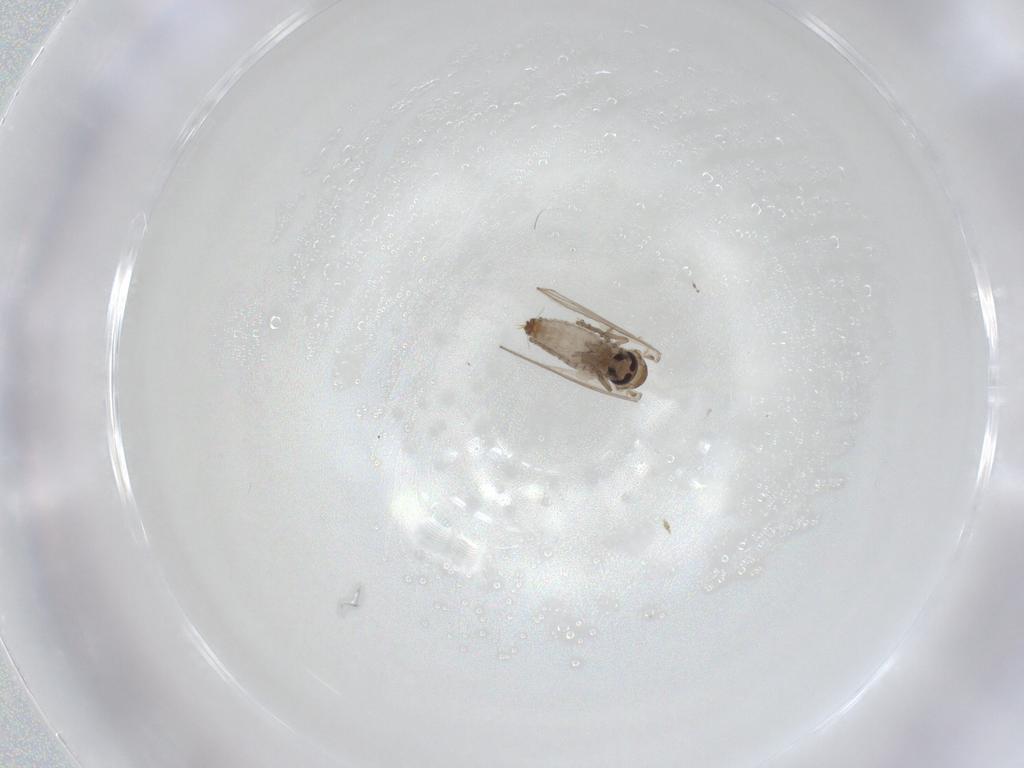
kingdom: Animalia
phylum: Arthropoda
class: Insecta
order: Diptera
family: Psychodidae
